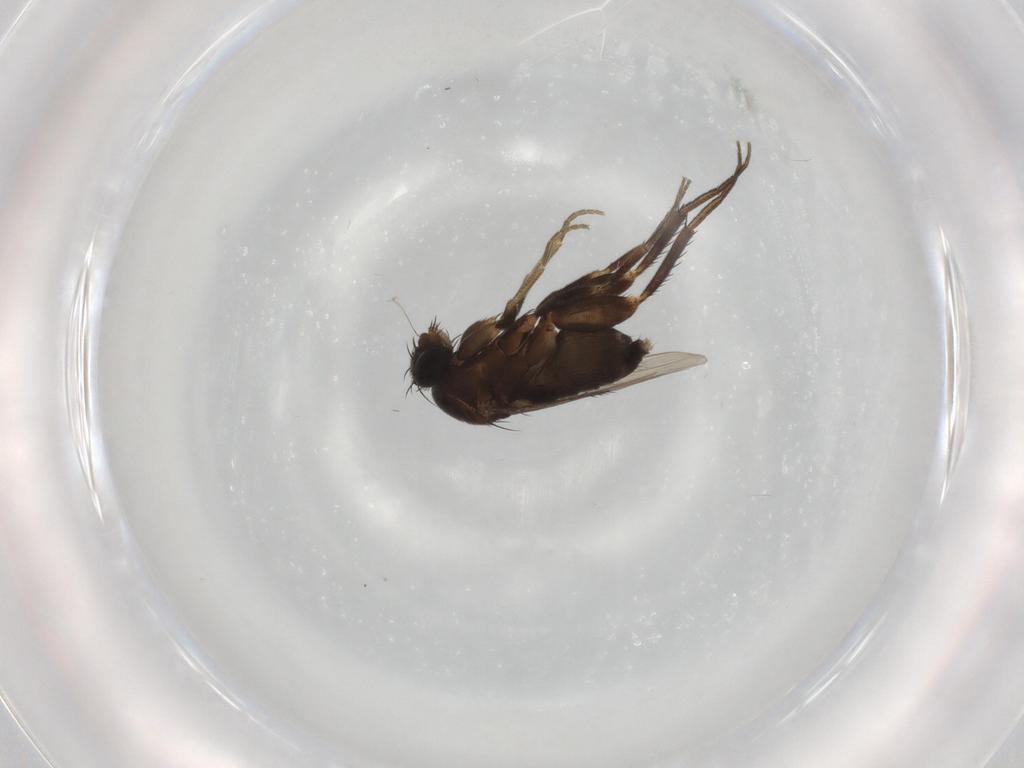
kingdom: Animalia
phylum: Arthropoda
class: Insecta
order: Diptera
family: Phoridae
